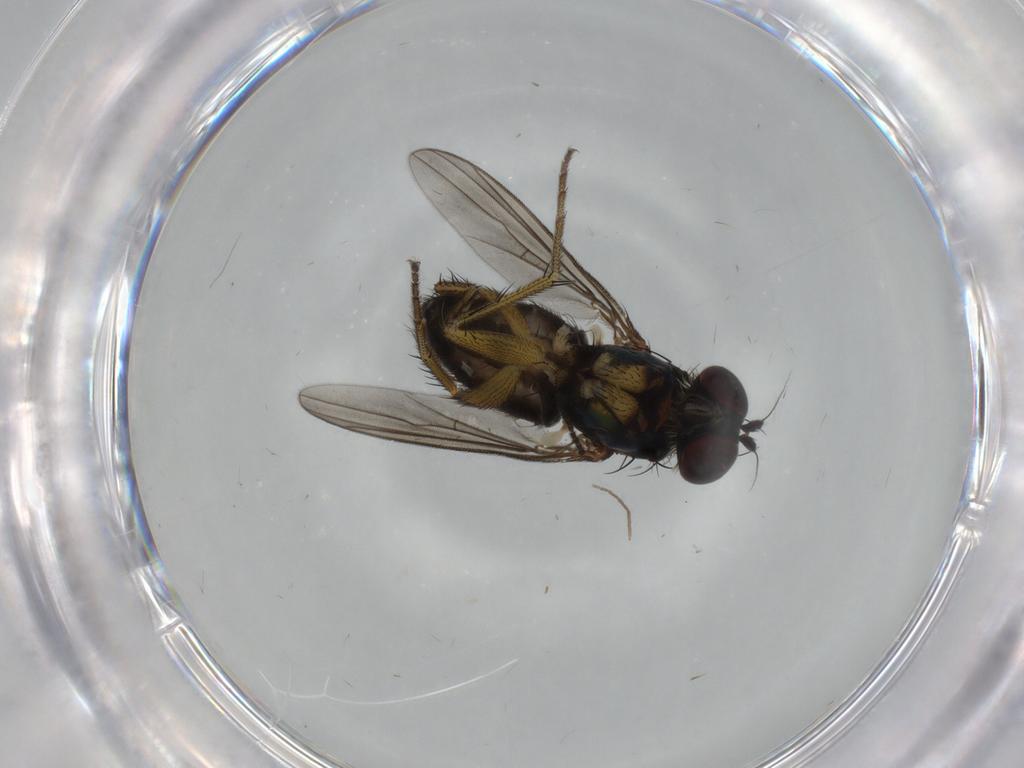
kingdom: Animalia
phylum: Arthropoda
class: Insecta
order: Diptera
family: Dolichopodidae
